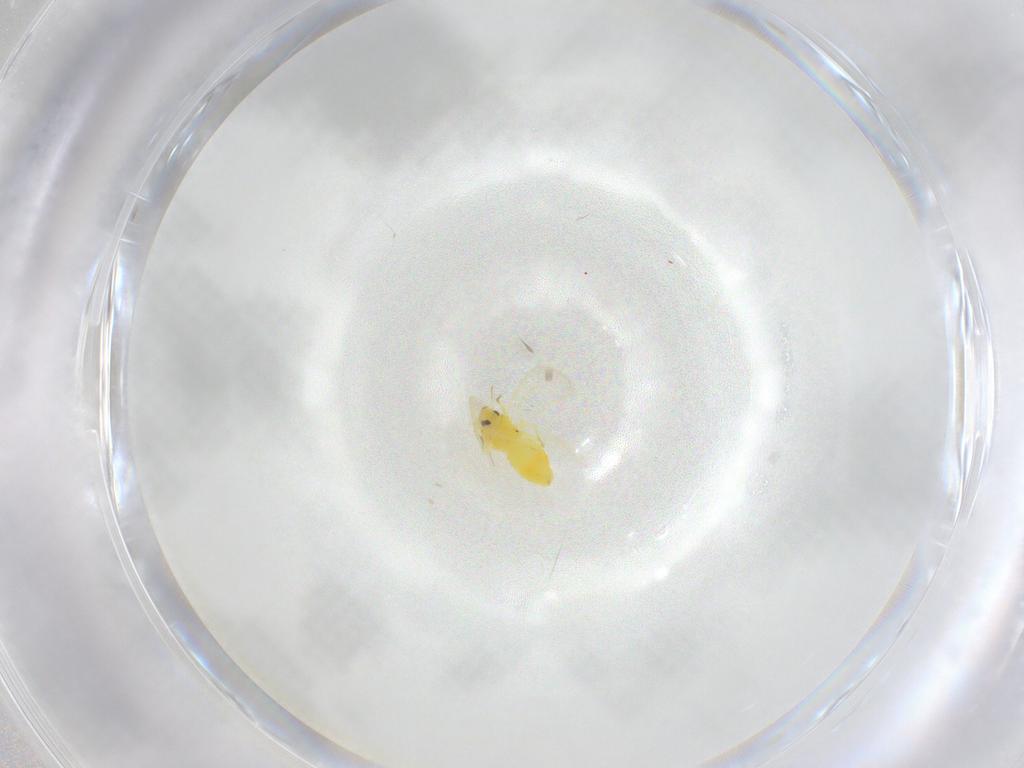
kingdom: Animalia
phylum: Arthropoda
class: Insecta
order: Hemiptera
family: Aleyrodidae
